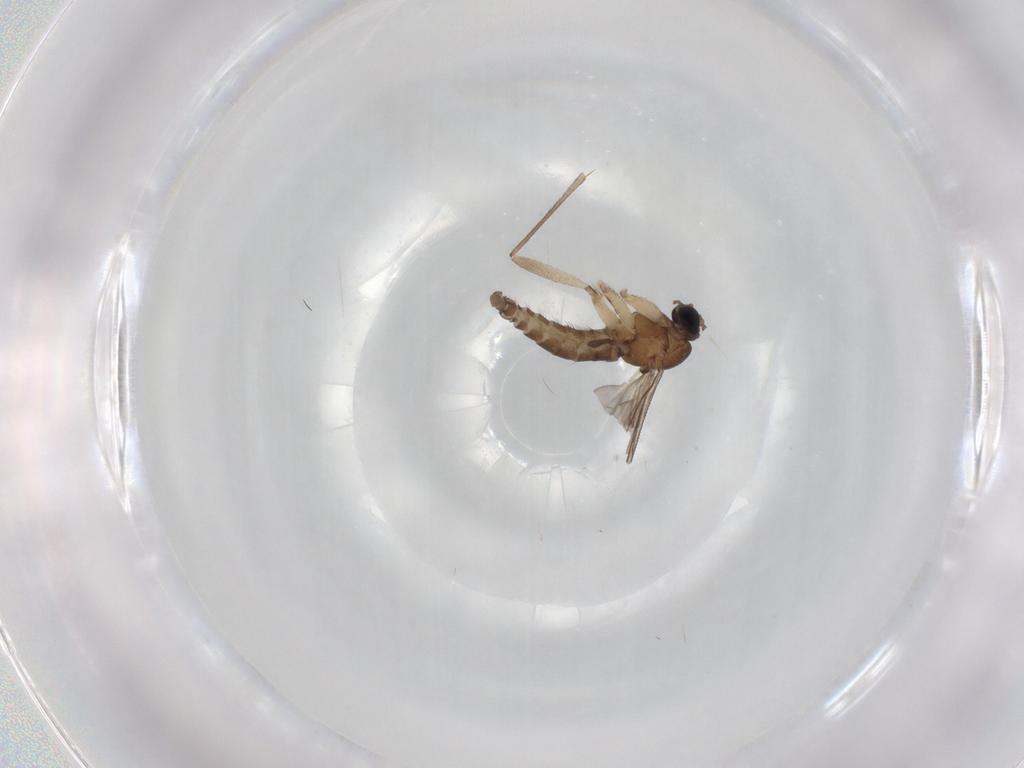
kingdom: Animalia
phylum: Arthropoda
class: Insecta
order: Diptera
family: Sciaridae
